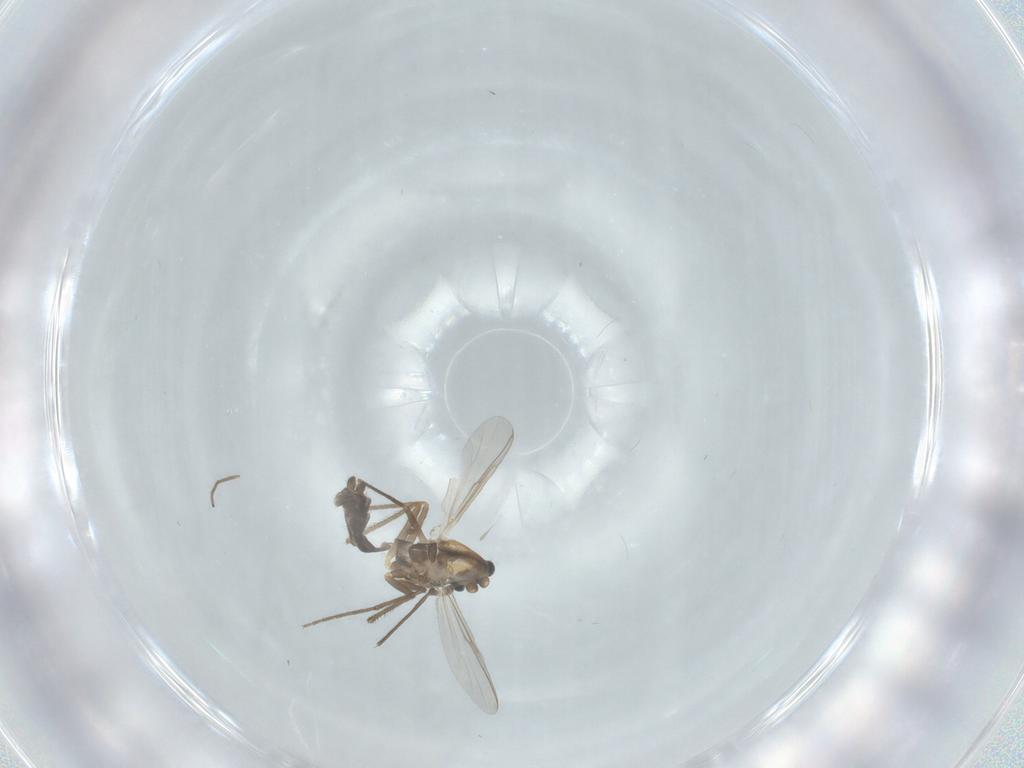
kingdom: Animalia
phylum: Arthropoda
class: Insecta
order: Diptera
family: Chironomidae
